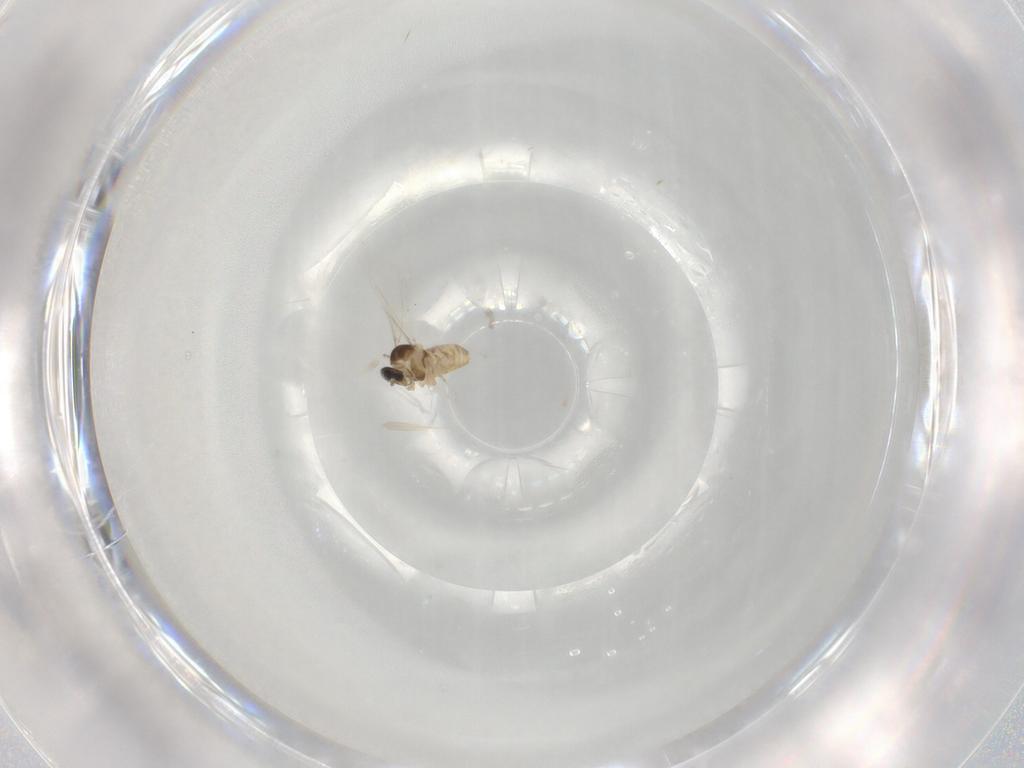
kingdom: Animalia
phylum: Arthropoda
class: Insecta
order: Diptera
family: Cecidomyiidae
